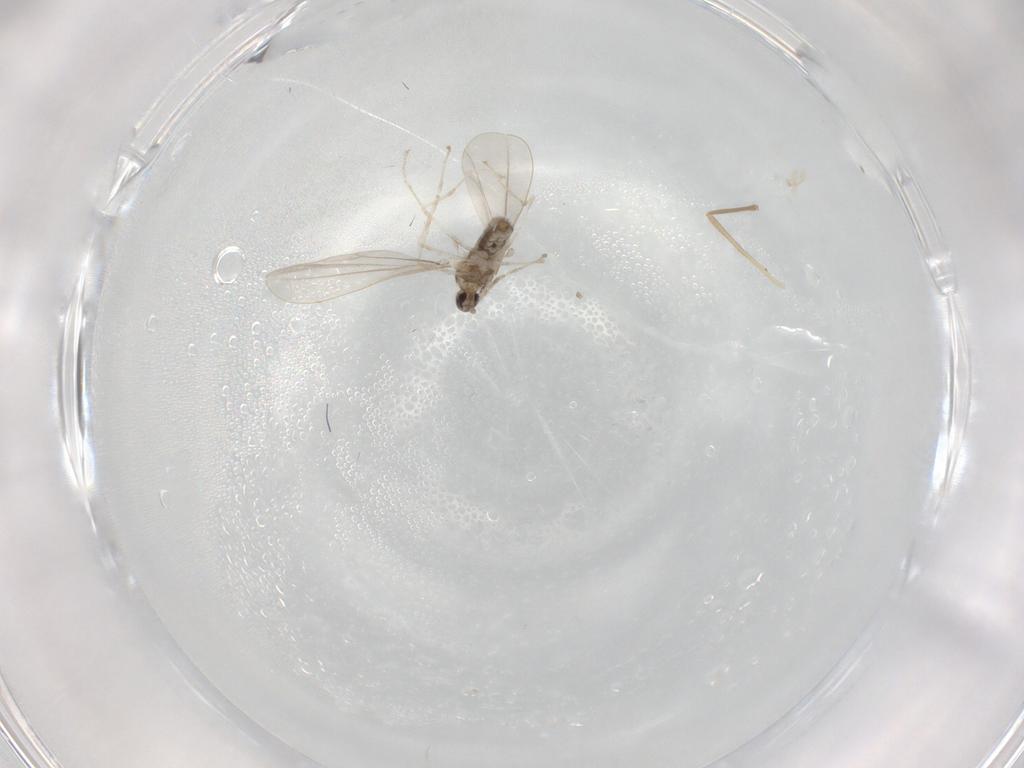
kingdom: Animalia
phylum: Arthropoda
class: Insecta
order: Diptera
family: Chironomidae
